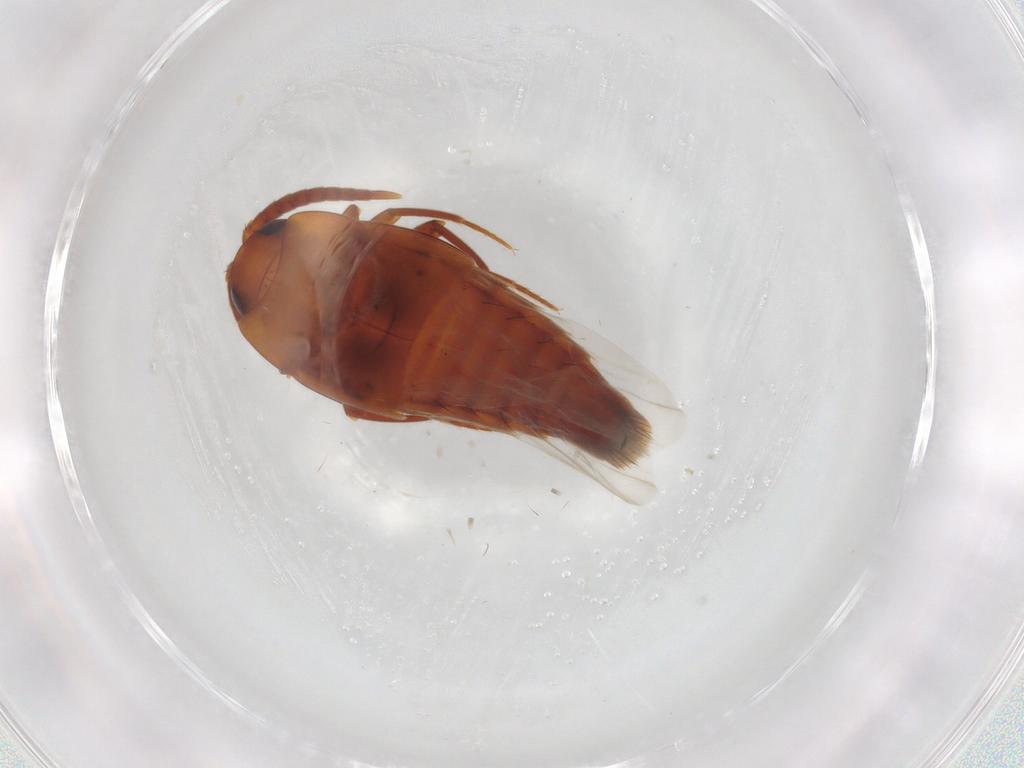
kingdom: Animalia
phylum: Arthropoda
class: Insecta
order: Coleoptera
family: Staphylinidae
